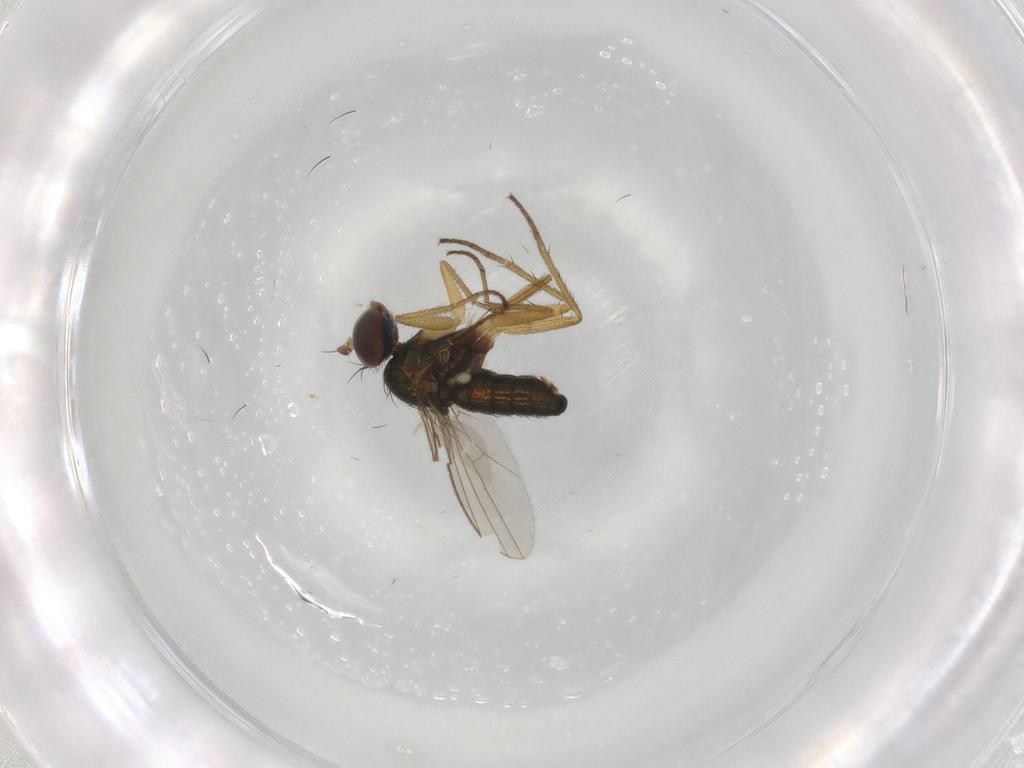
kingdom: Animalia
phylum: Arthropoda
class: Insecta
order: Diptera
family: Dolichopodidae
